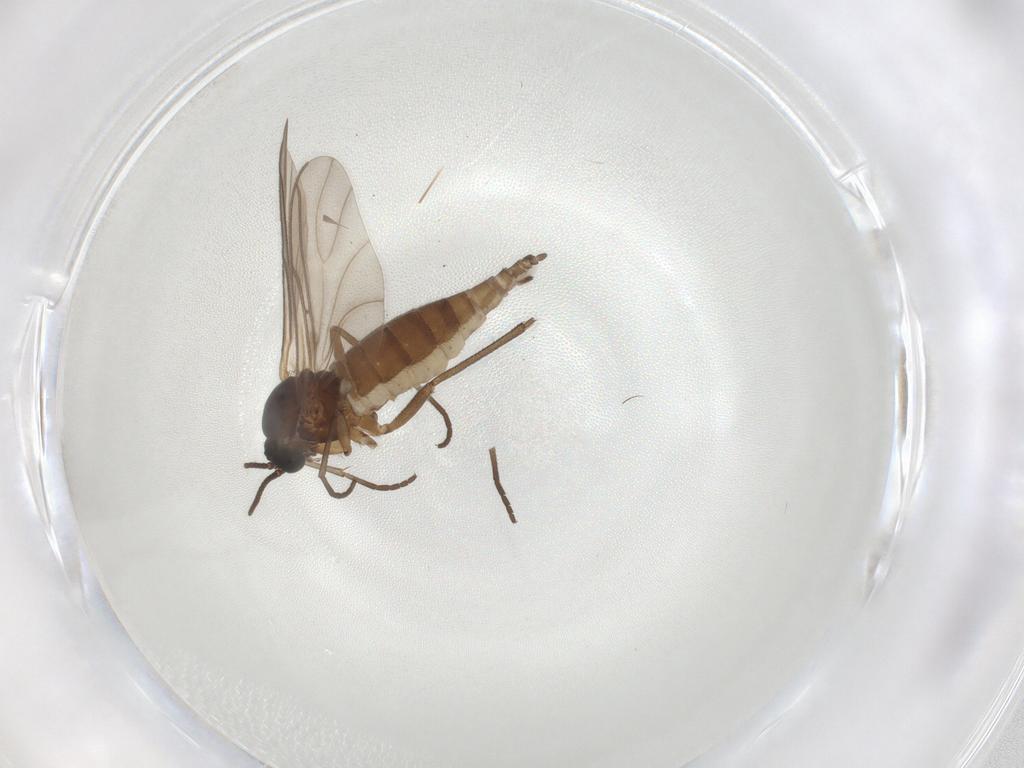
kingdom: Animalia
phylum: Arthropoda
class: Insecta
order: Diptera
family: Sciaridae
